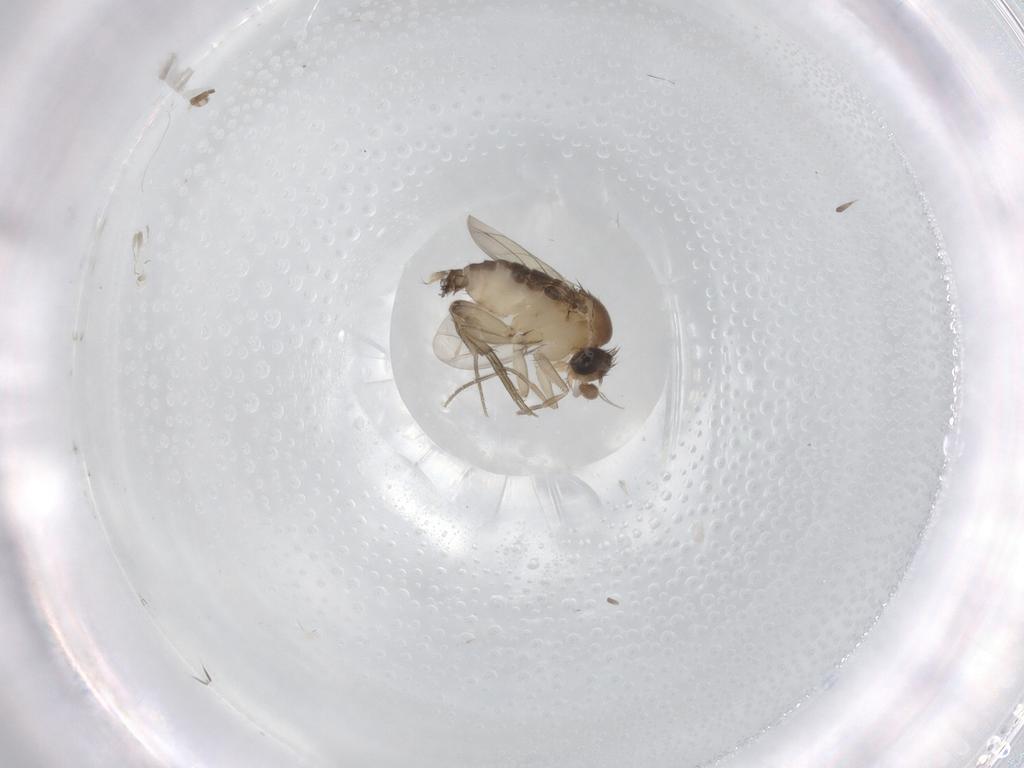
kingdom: Animalia
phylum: Arthropoda
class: Insecta
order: Diptera
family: Phoridae
